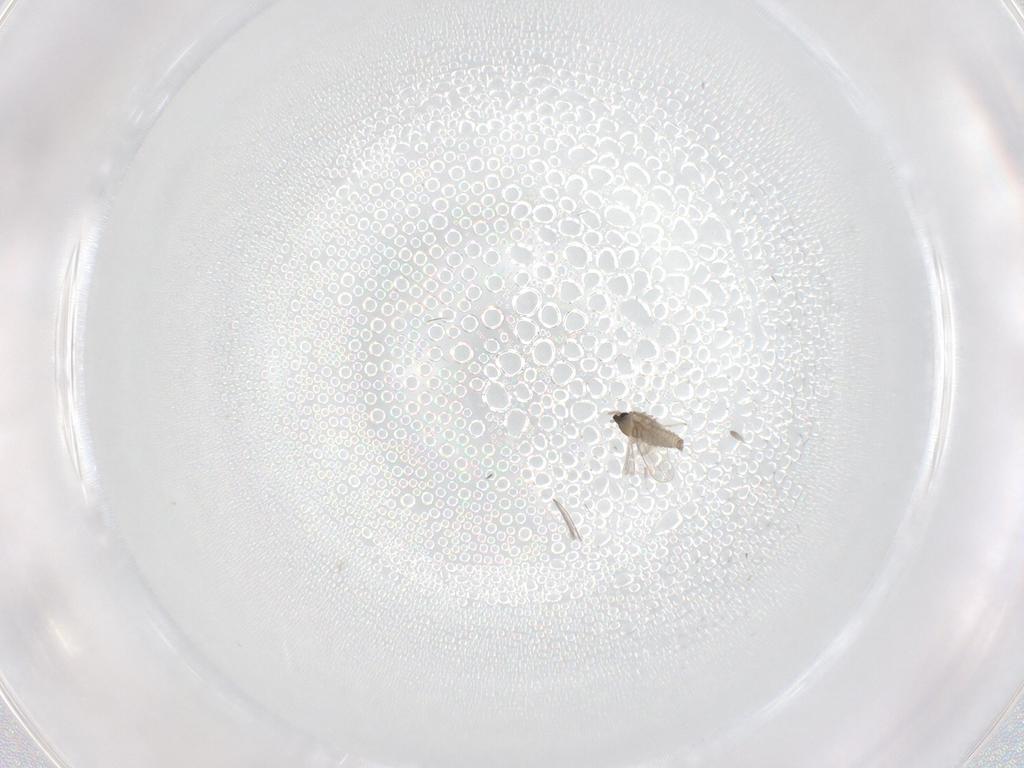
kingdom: Animalia
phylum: Arthropoda
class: Insecta
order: Diptera
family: Cecidomyiidae
